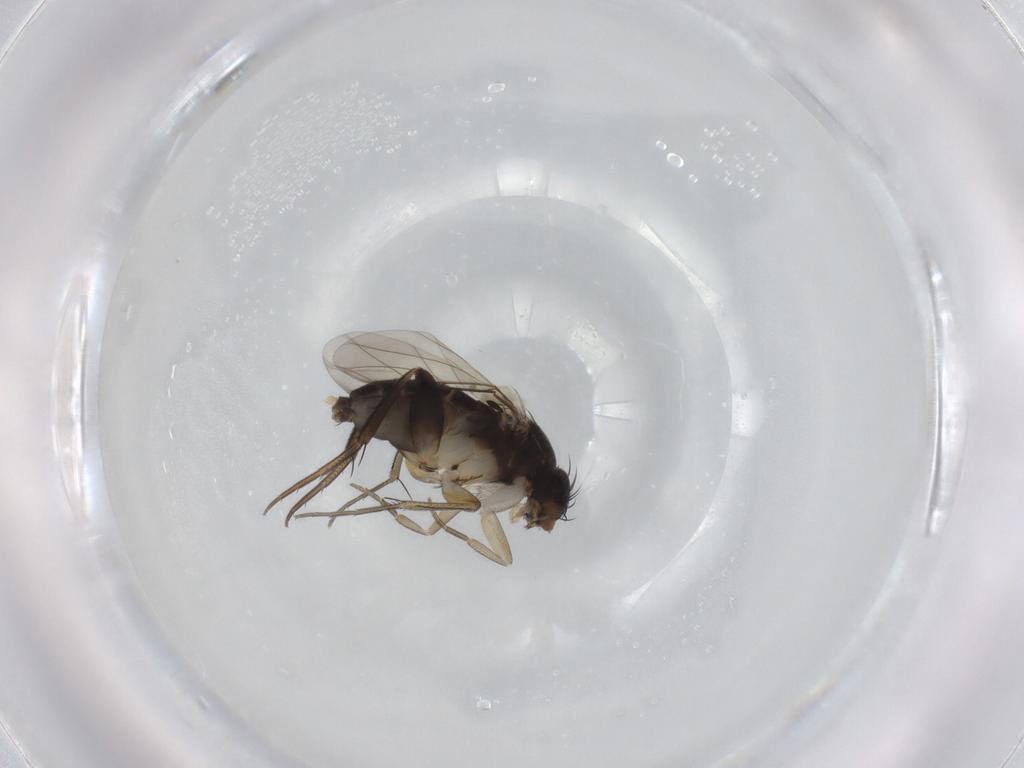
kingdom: Animalia
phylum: Arthropoda
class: Insecta
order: Diptera
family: Phoridae
